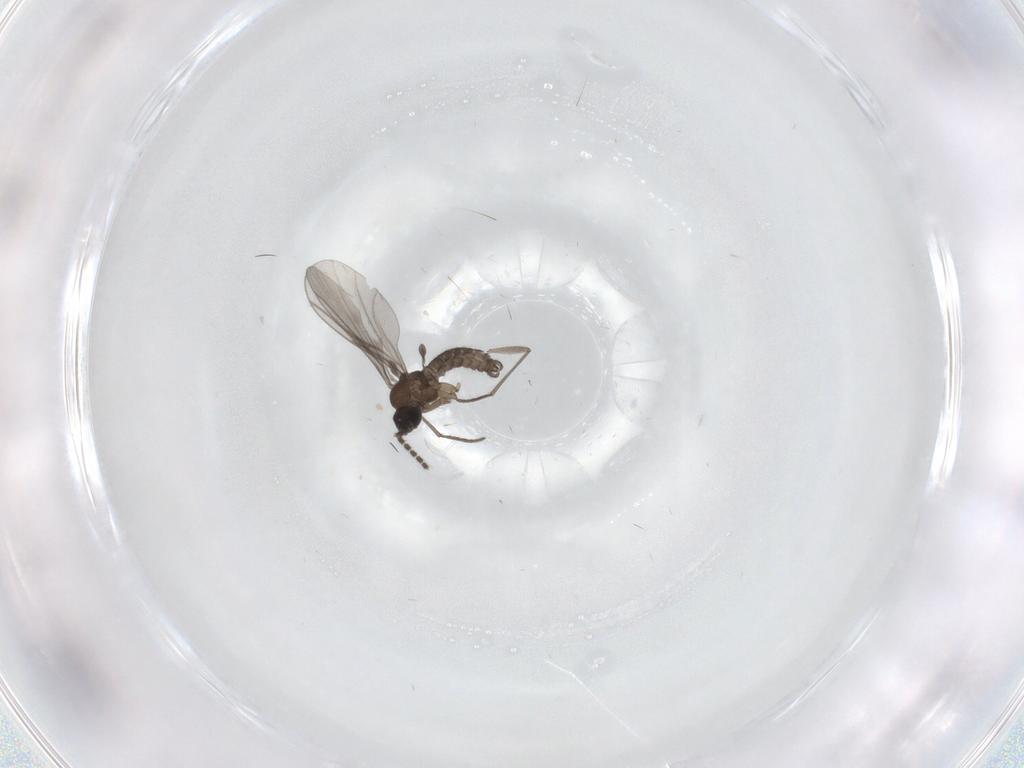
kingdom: Animalia
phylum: Arthropoda
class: Insecta
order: Diptera
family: Sciaridae
